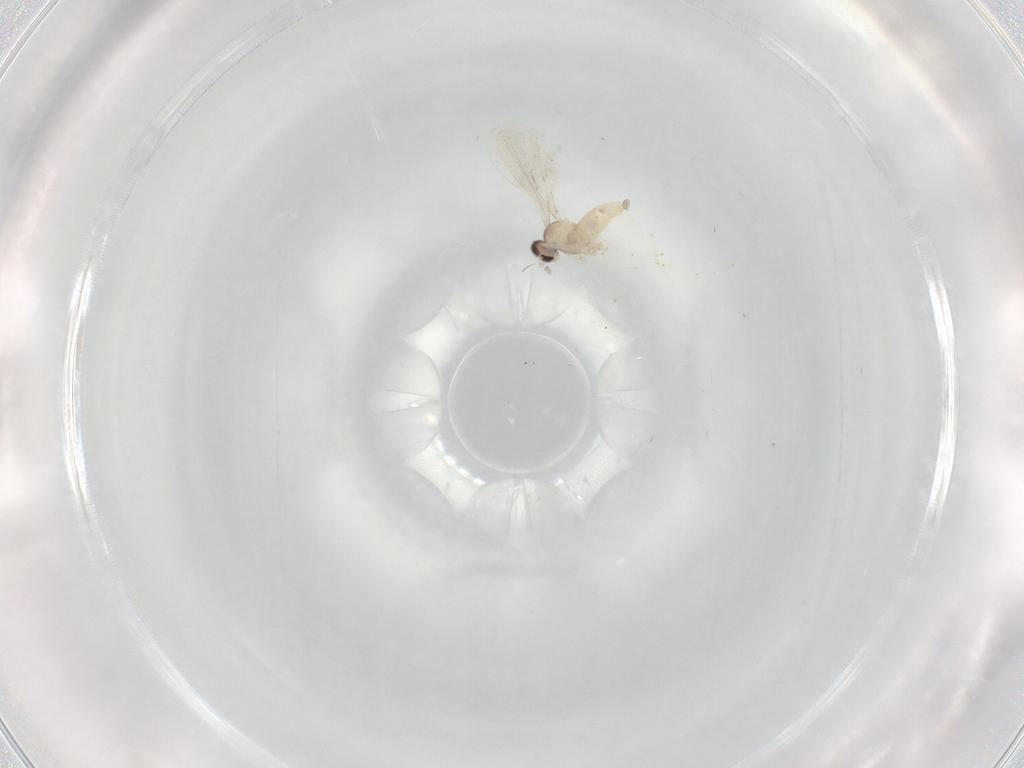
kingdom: Animalia
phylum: Arthropoda
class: Insecta
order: Diptera
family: Cecidomyiidae
